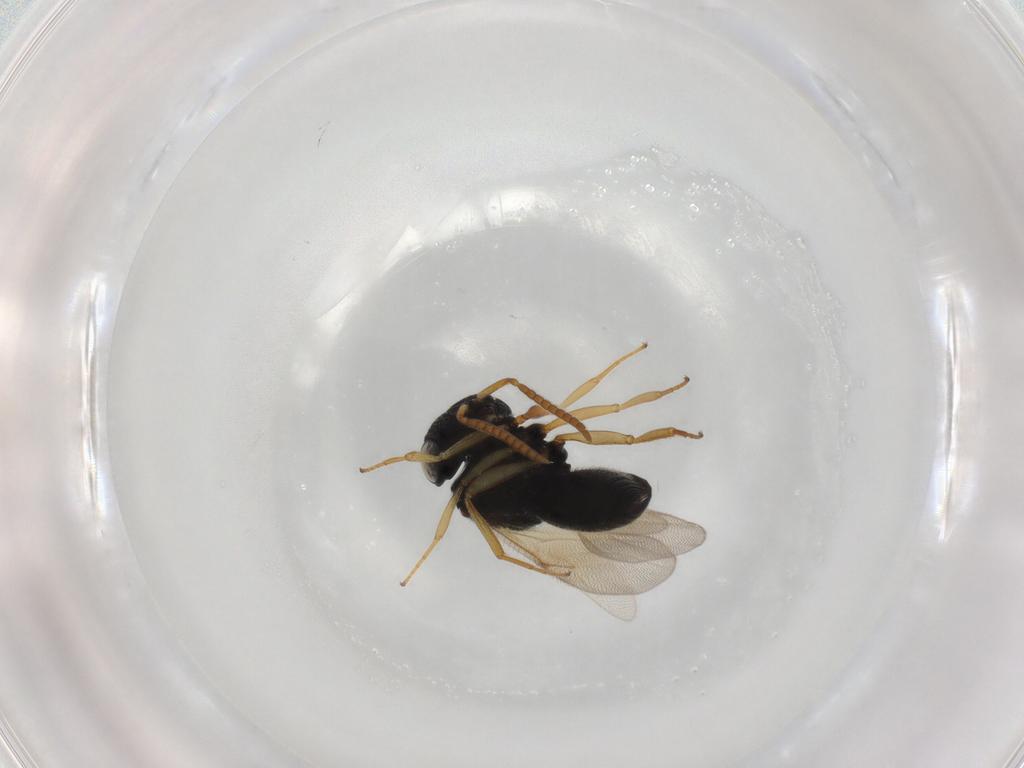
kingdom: Animalia
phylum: Arthropoda
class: Insecta
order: Hymenoptera
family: Scelionidae
